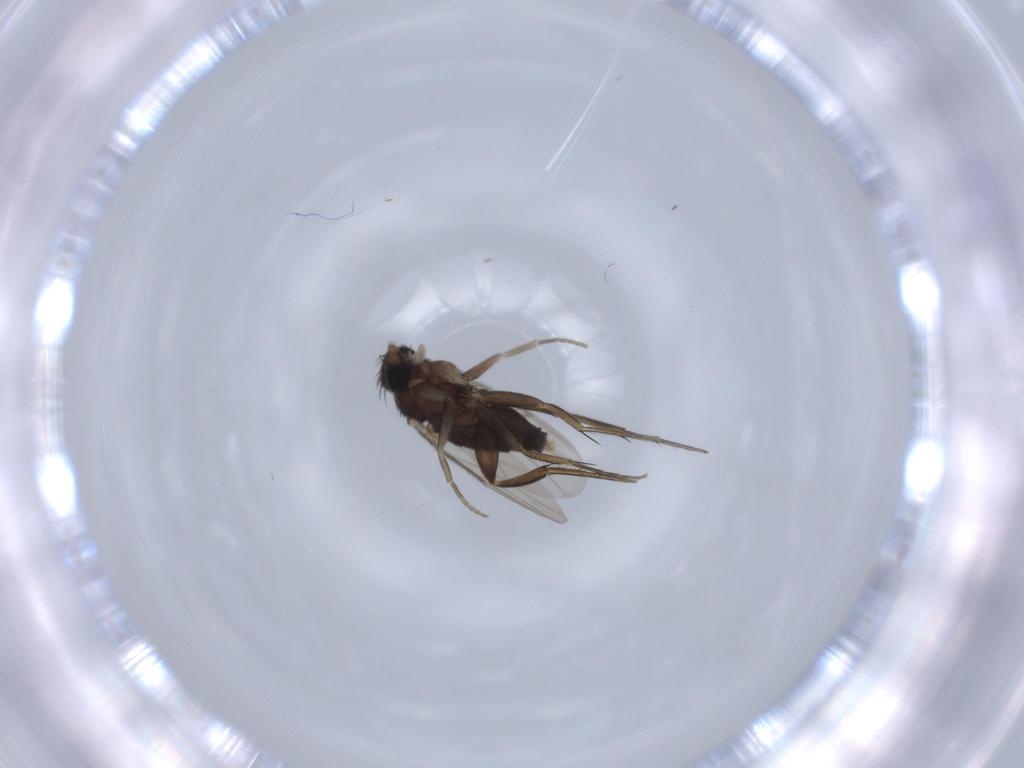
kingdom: Animalia
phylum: Arthropoda
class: Insecta
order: Diptera
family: Phoridae
